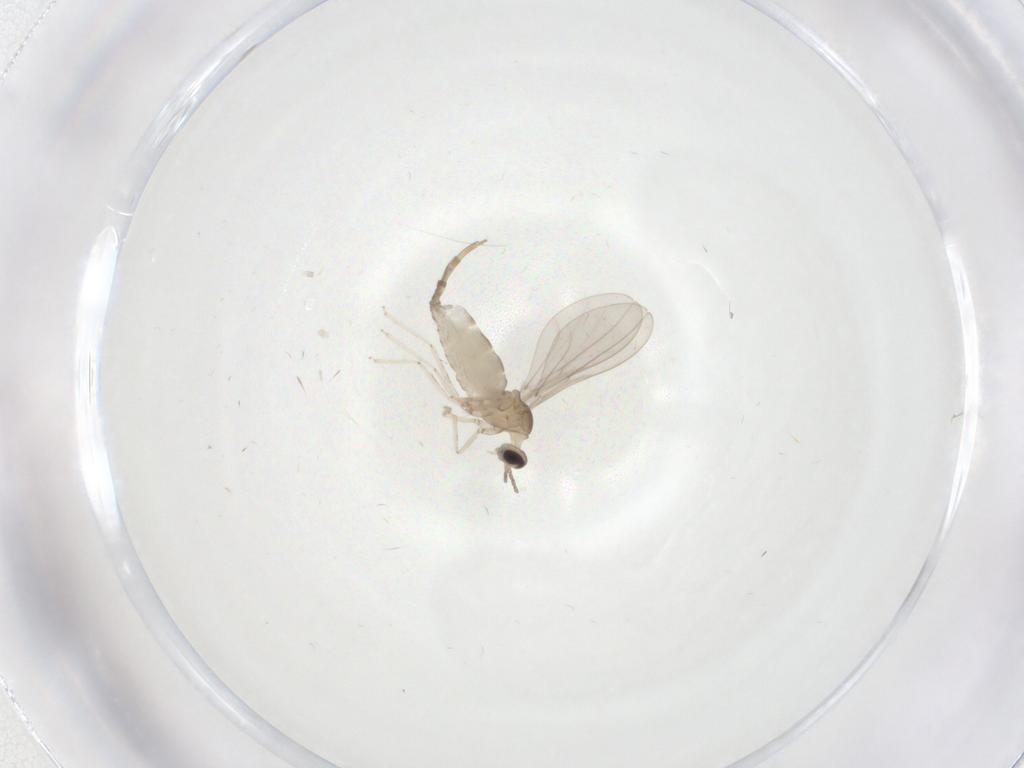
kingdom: Animalia
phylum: Arthropoda
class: Insecta
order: Diptera
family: Cecidomyiidae
